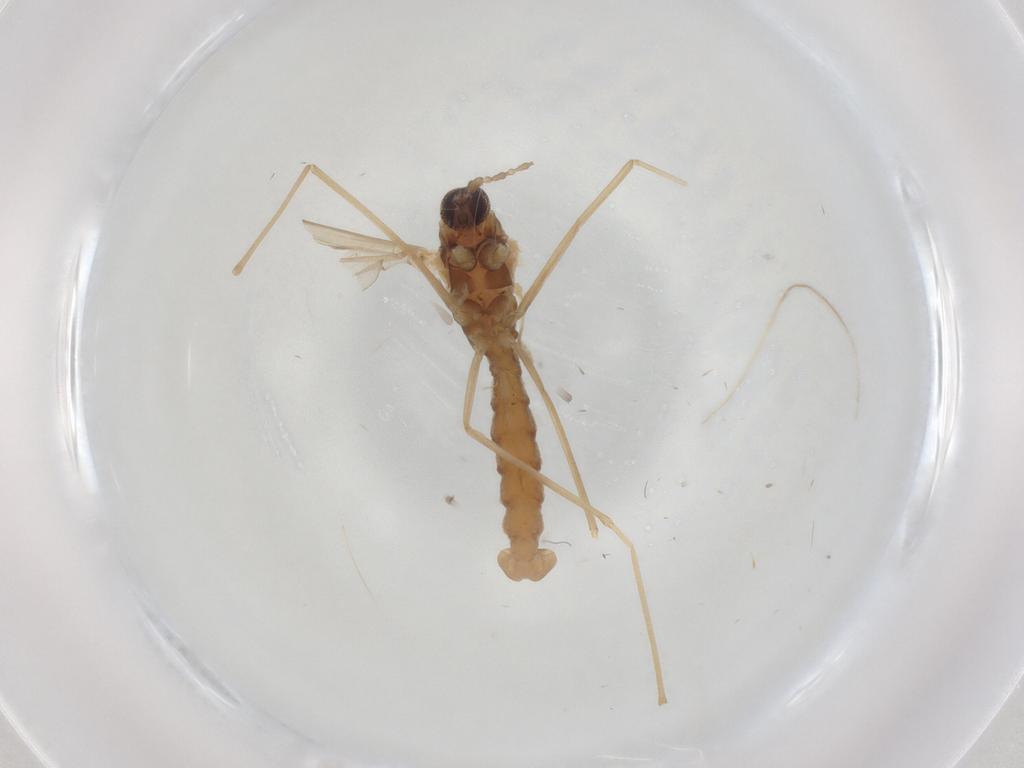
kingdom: Animalia
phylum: Arthropoda
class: Insecta
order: Diptera
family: Cecidomyiidae
